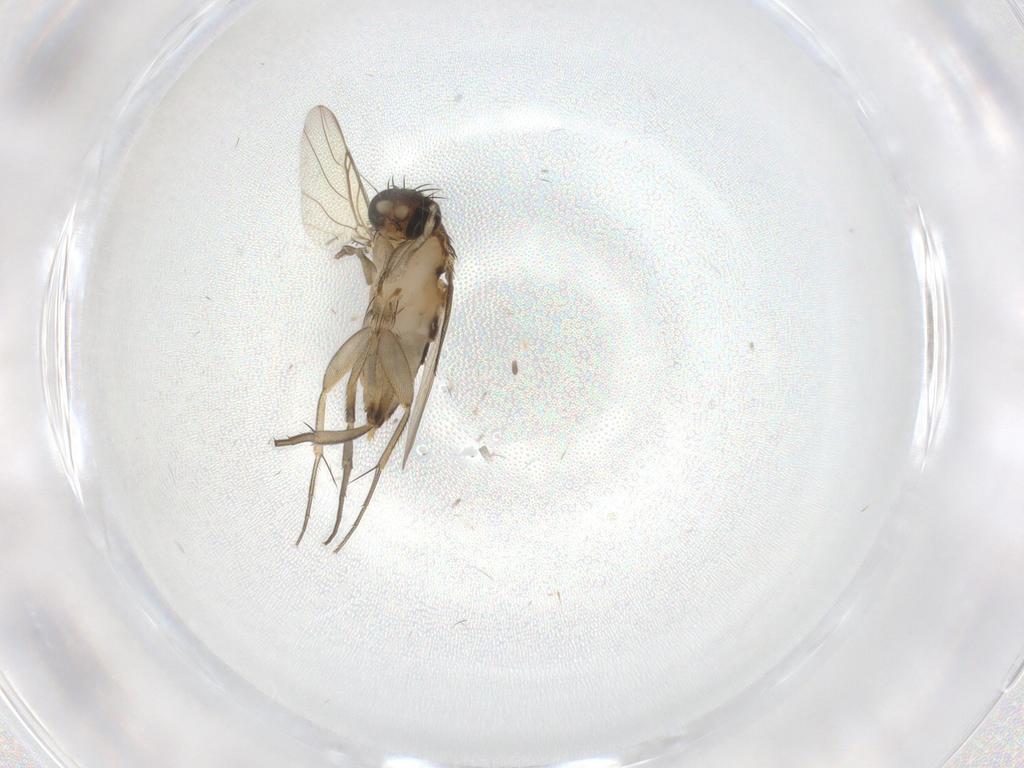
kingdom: Animalia
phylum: Arthropoda
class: Insecta
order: Diptera
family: Phoridae
